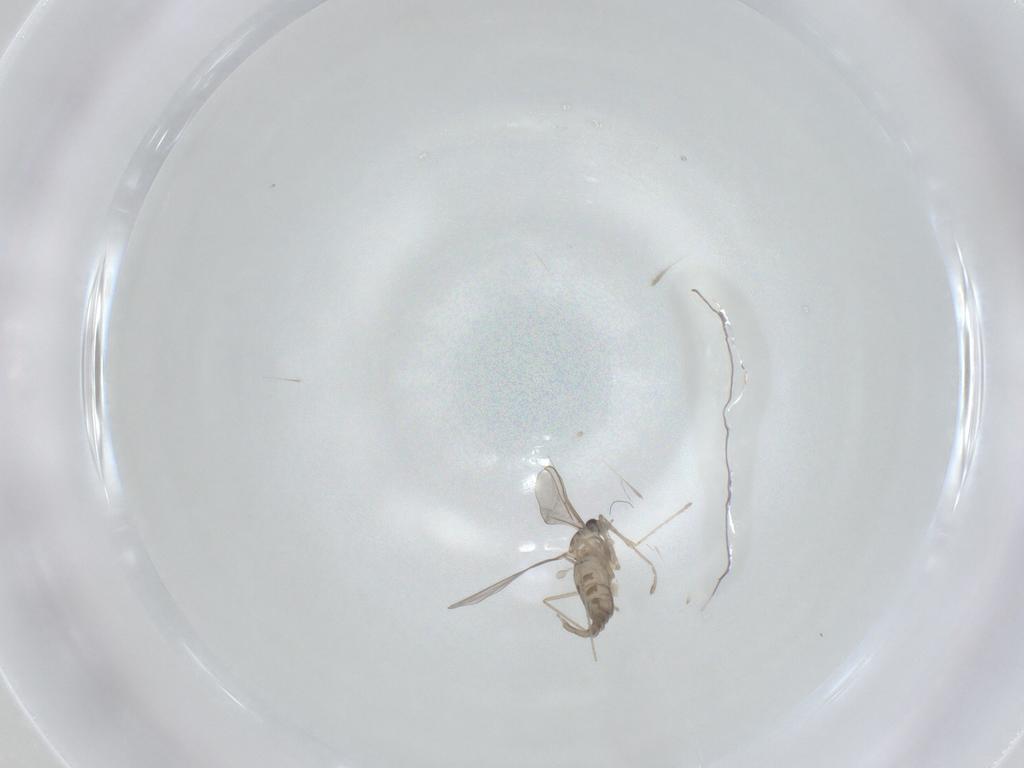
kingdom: Animalia
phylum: Arthropoda
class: Insecta
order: Diptera
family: Cecidomyiidae
